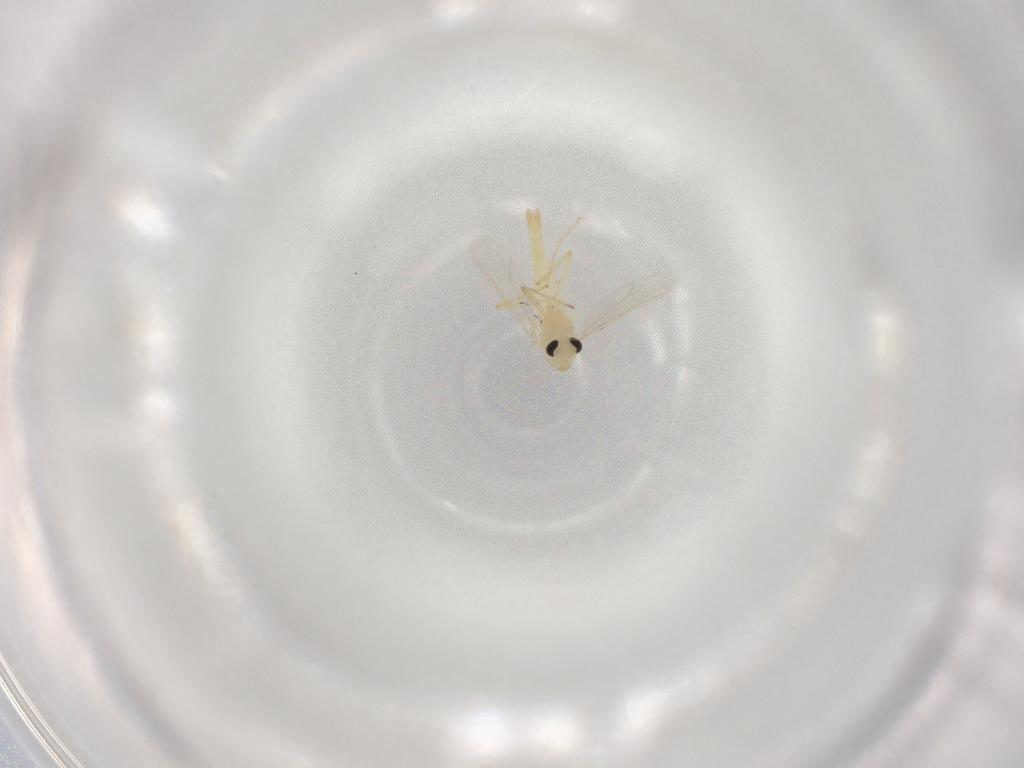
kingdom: Animalia
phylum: Arthropoda
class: Insecta
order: Diptera
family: Chironomidae
